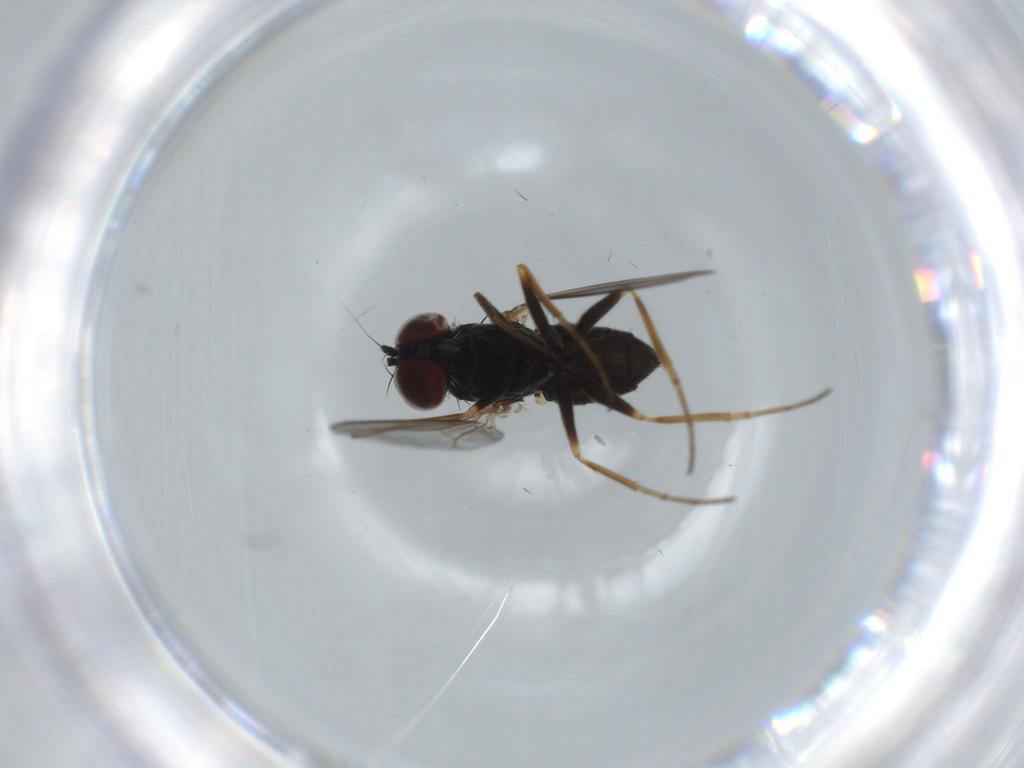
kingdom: Animalia
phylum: Arthropoda
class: Insecta
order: Diptera
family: Dolichopodidae
